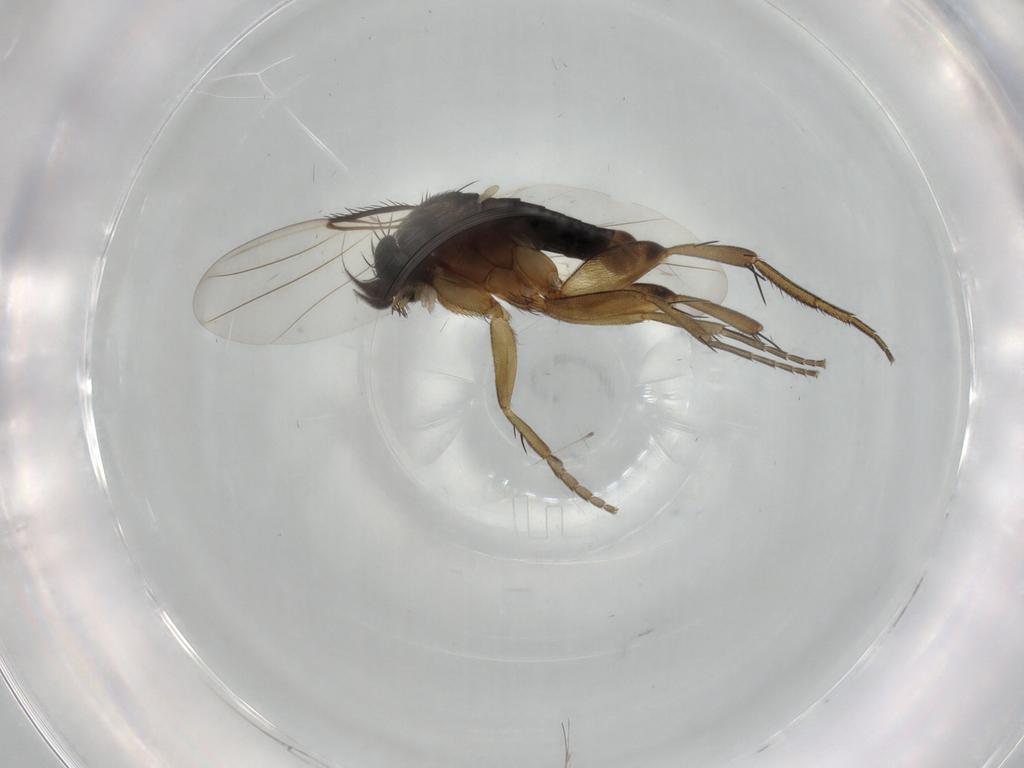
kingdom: Animalia
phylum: Arthropoda
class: Insecta
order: Diptera
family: Phoridae
